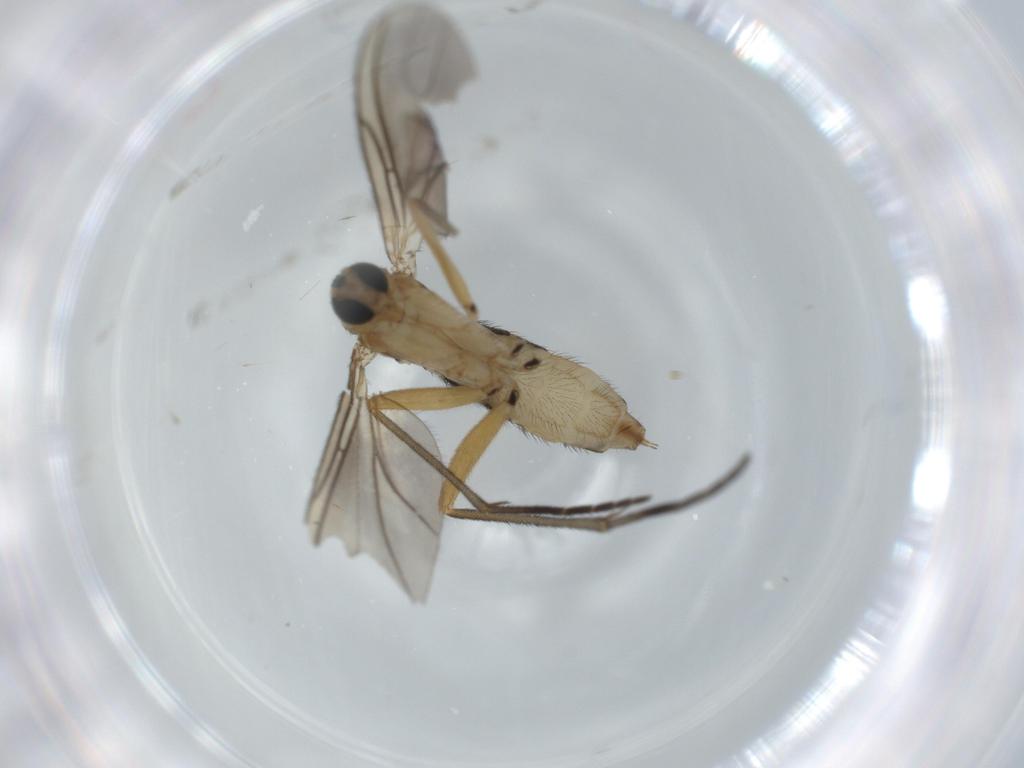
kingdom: Animalia
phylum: Arthropoda
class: Insecta
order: Diptera
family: Sciaridae
